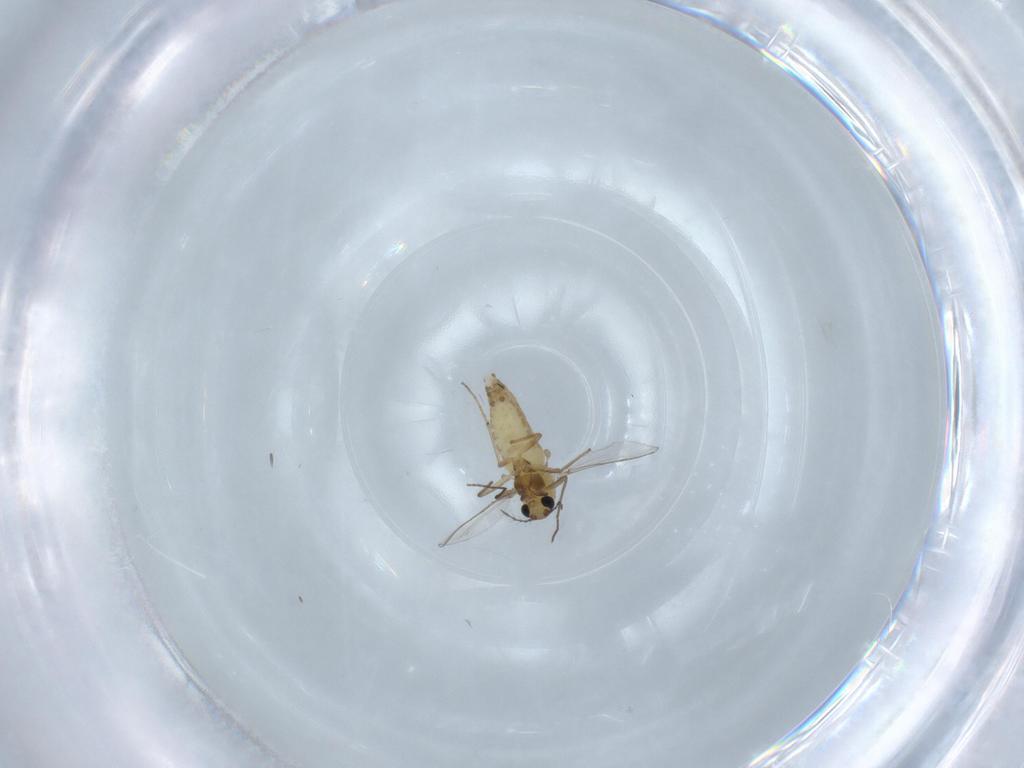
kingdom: Animalia
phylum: Arthropoda
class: Insecta
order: Diptera
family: Chironomidae
